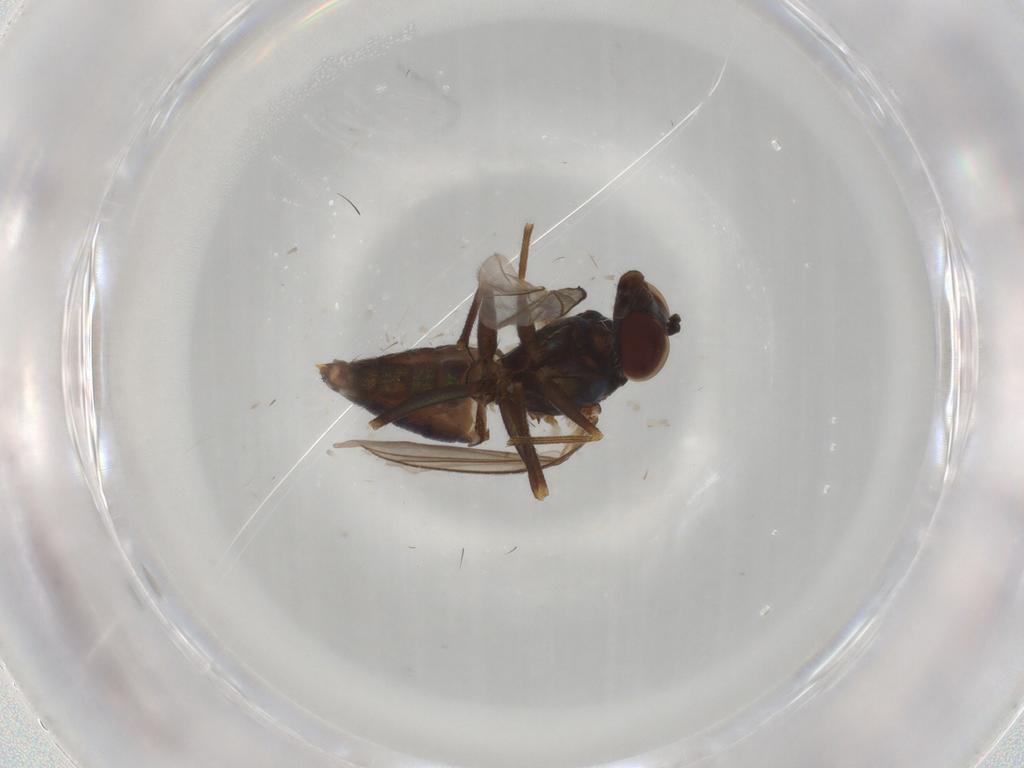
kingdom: Animalia
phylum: Arthropoda
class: Insecta
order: Diptera
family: Dolichopodidae
